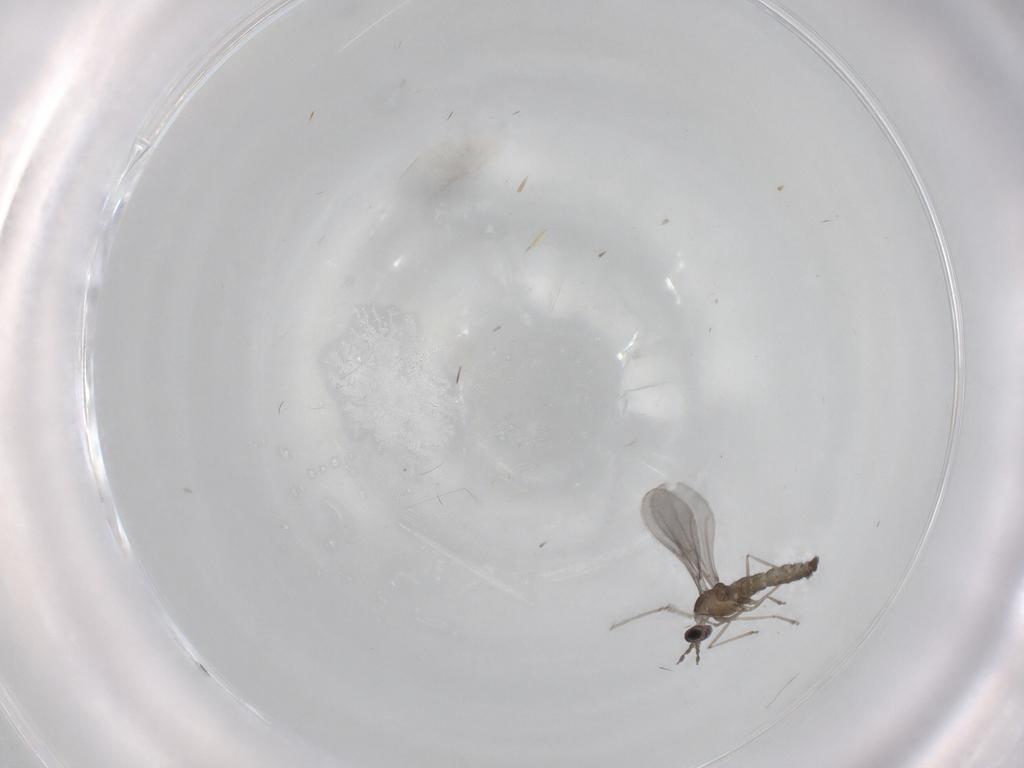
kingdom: Animalia
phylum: Arthropoda
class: Insecta
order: Diptera
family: Cecidomyiidae
